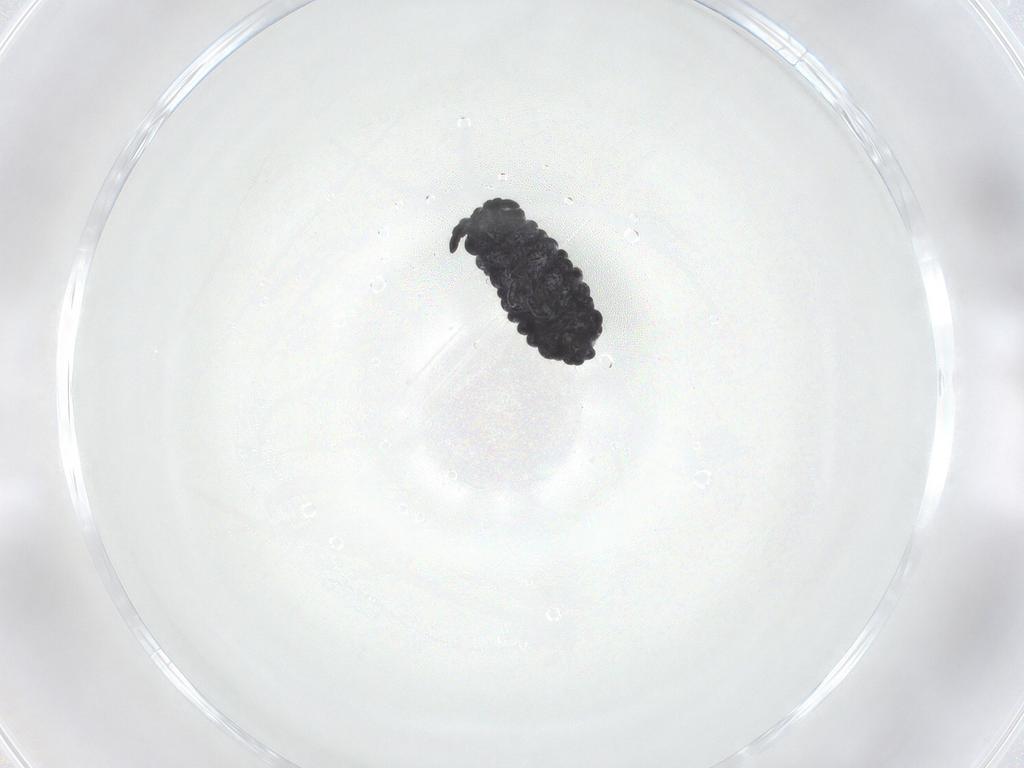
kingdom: Animalia
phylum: Arthropoda
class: Collembola
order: Poduromorpha
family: Neanuridae
